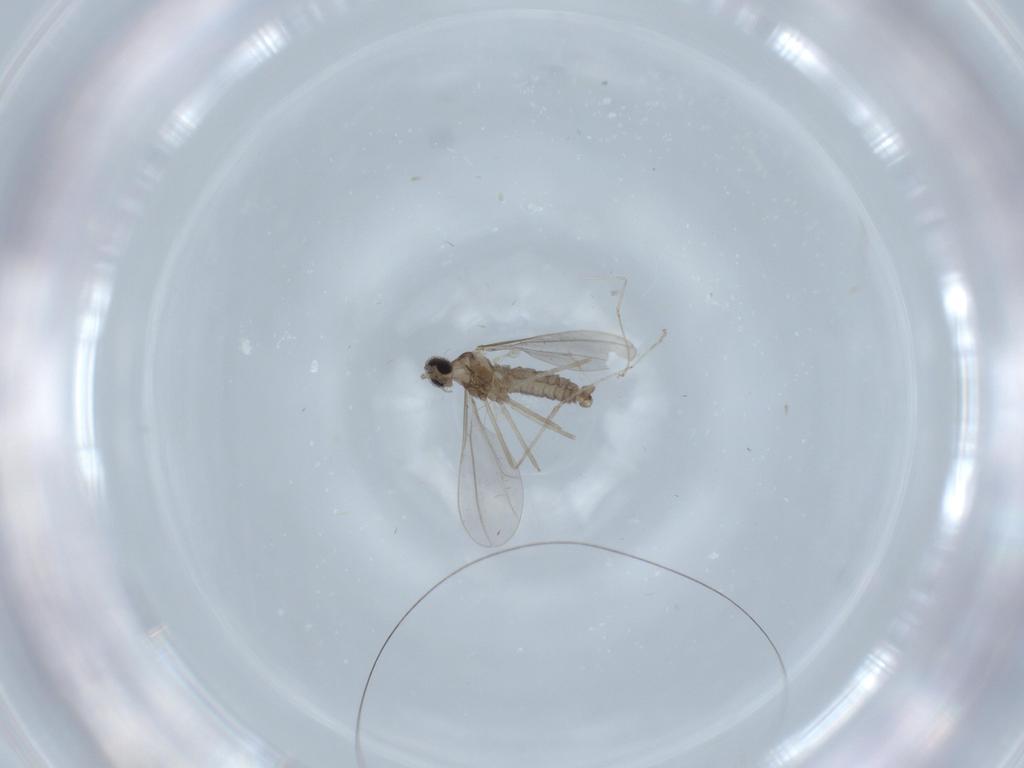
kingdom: Animalia
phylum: Arthropoda
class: Insecta
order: Diptera
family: Cecidomyiidae
